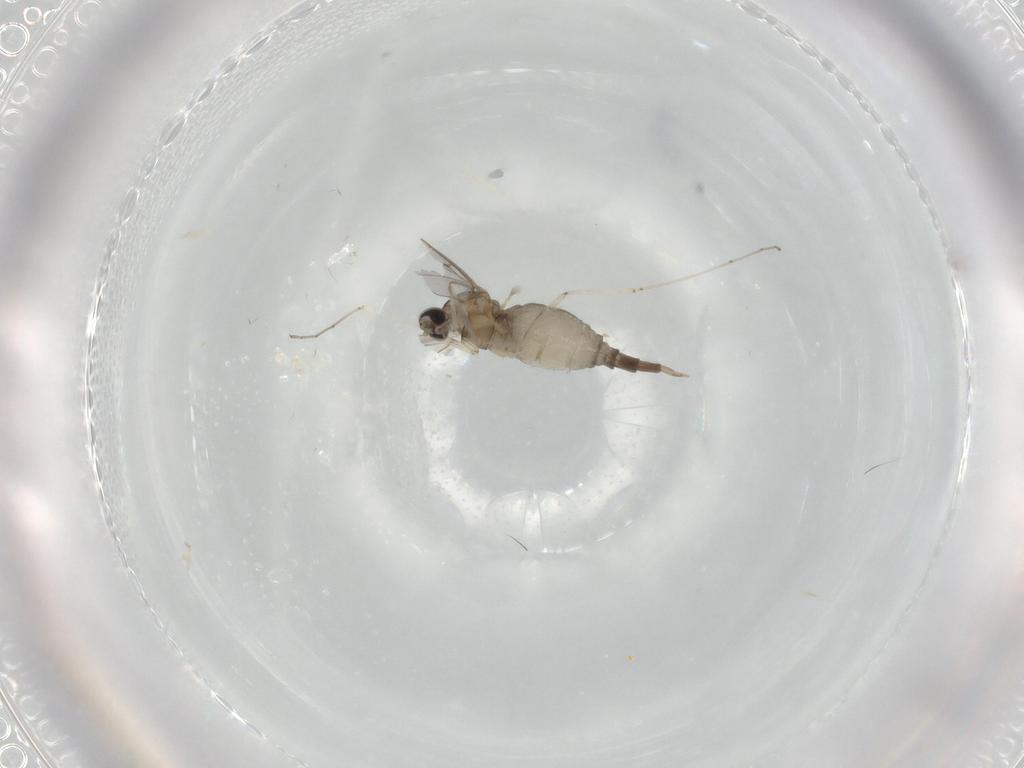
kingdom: Animalia
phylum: Arthropoda
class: Insecta
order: Diptera
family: Cecidomyiidae
